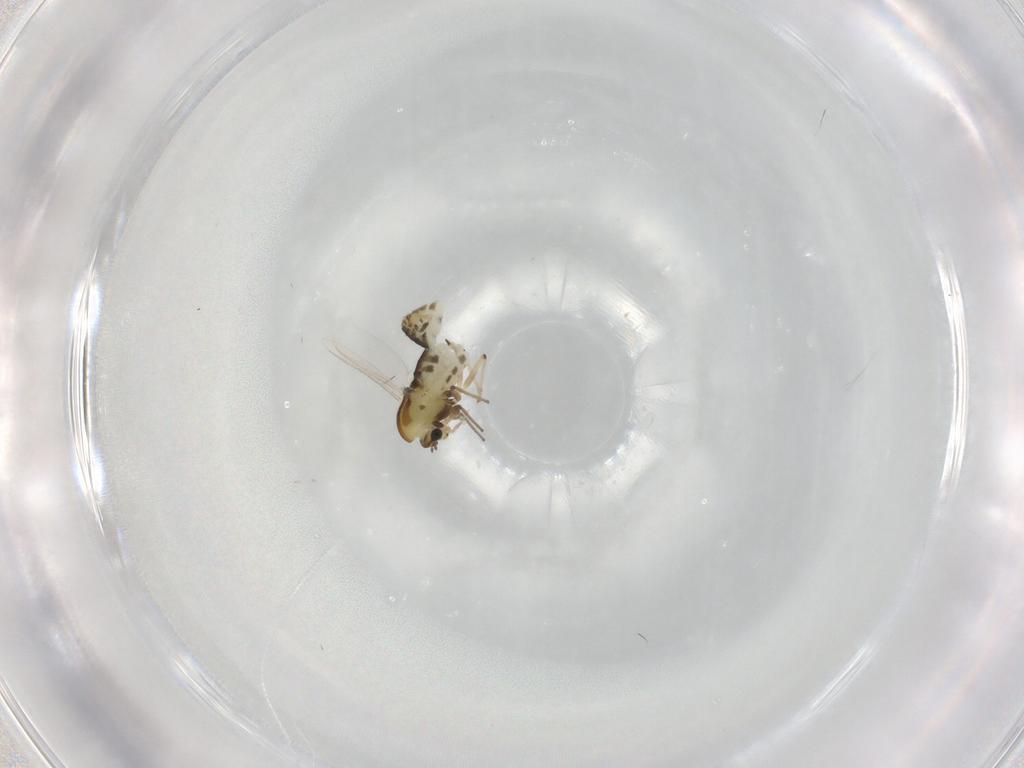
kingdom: Animalia
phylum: Arthropoda
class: Insecta
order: Diptera
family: Chironomidae
